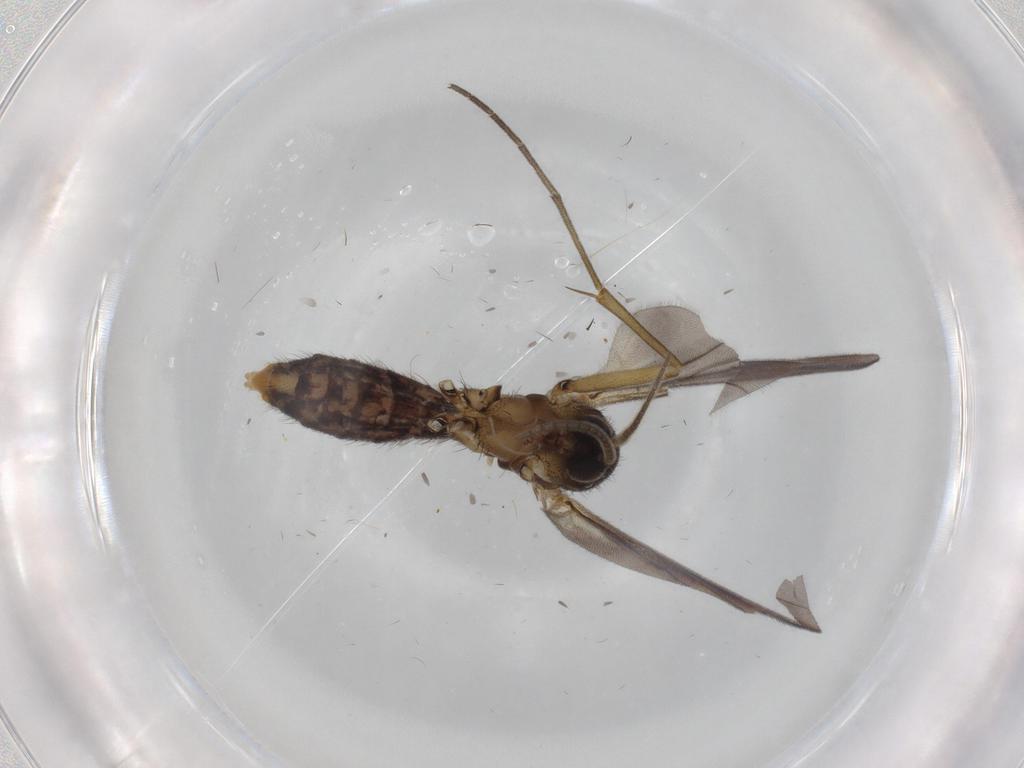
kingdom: Animalia
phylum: Arthropoda
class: Insecta
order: Diptera
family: Mycetophilidae
